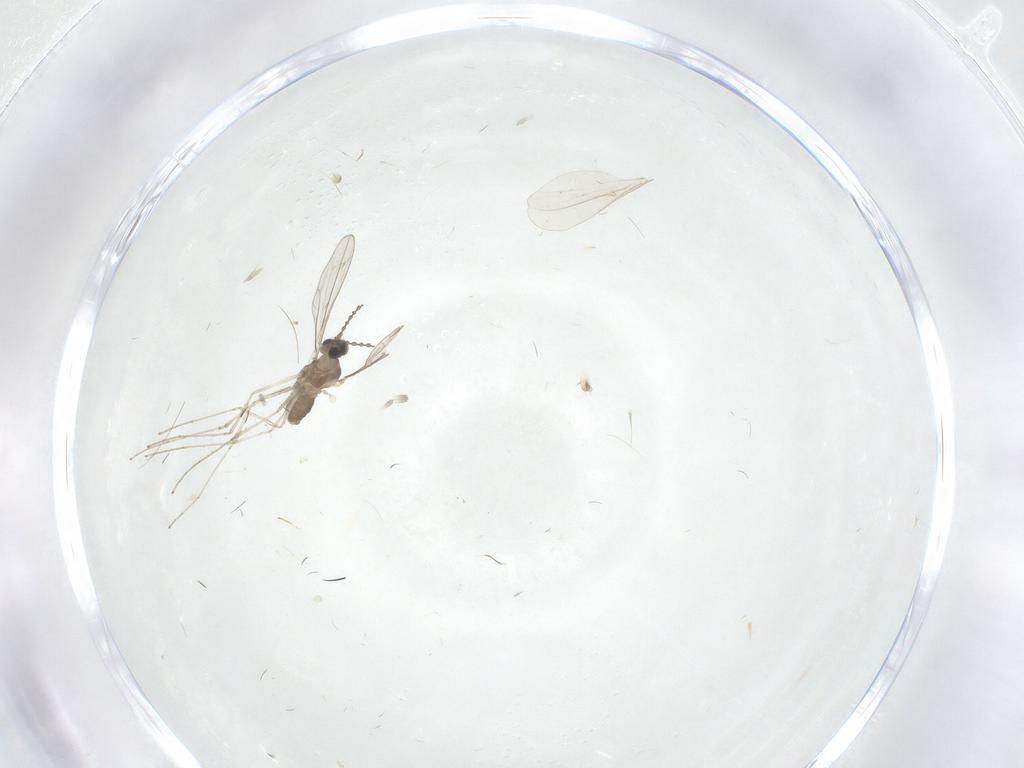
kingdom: Animalia
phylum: Arthropoda
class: Insecta
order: Diptera
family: Cecidomyiidae
